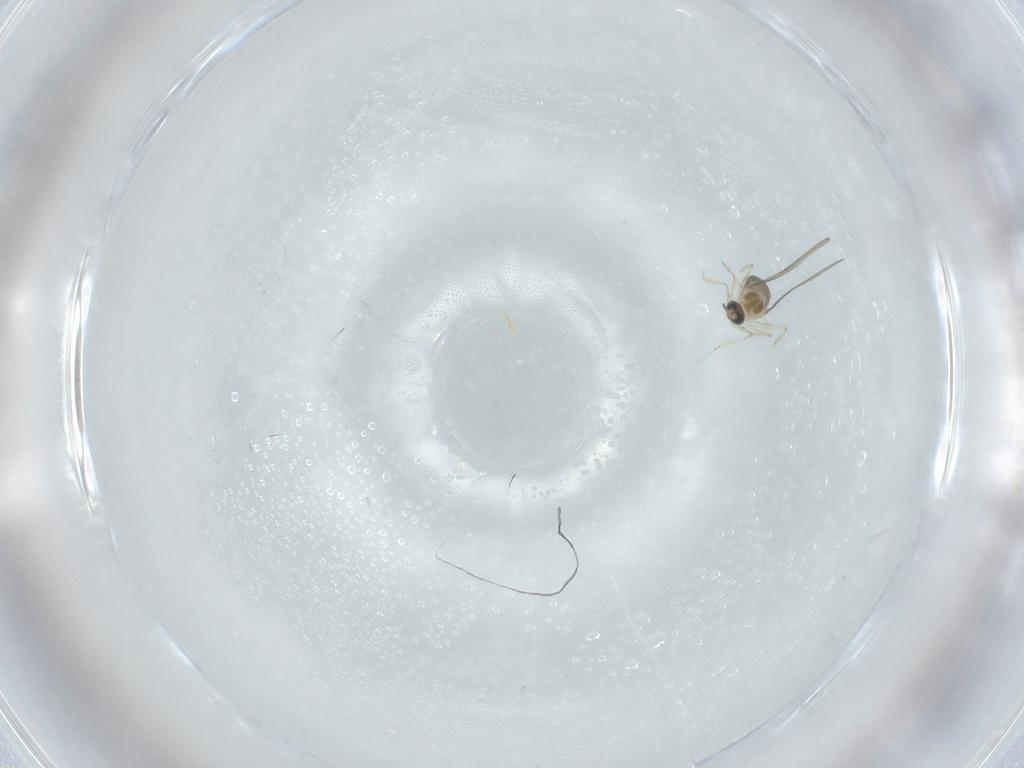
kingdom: Animalia
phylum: Arthropoda
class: Insecta
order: Diptera
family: Cecidomyiidae
